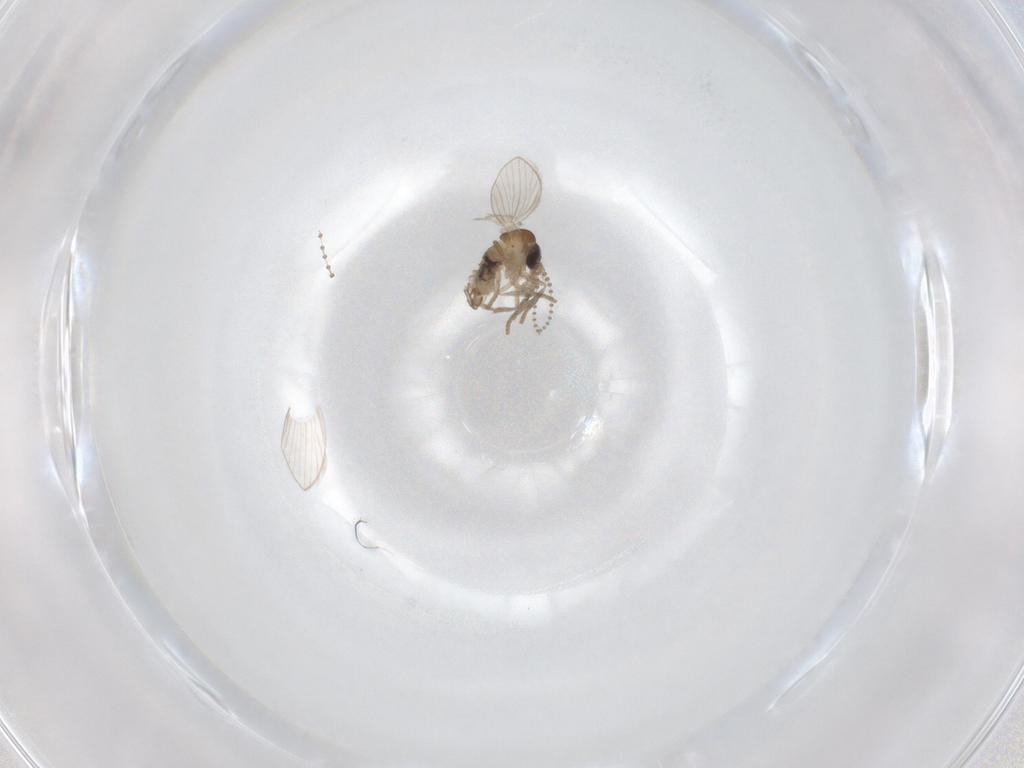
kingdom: Animalia
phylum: Arthropoda
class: Insecta
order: Diptera
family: Psychodidae
